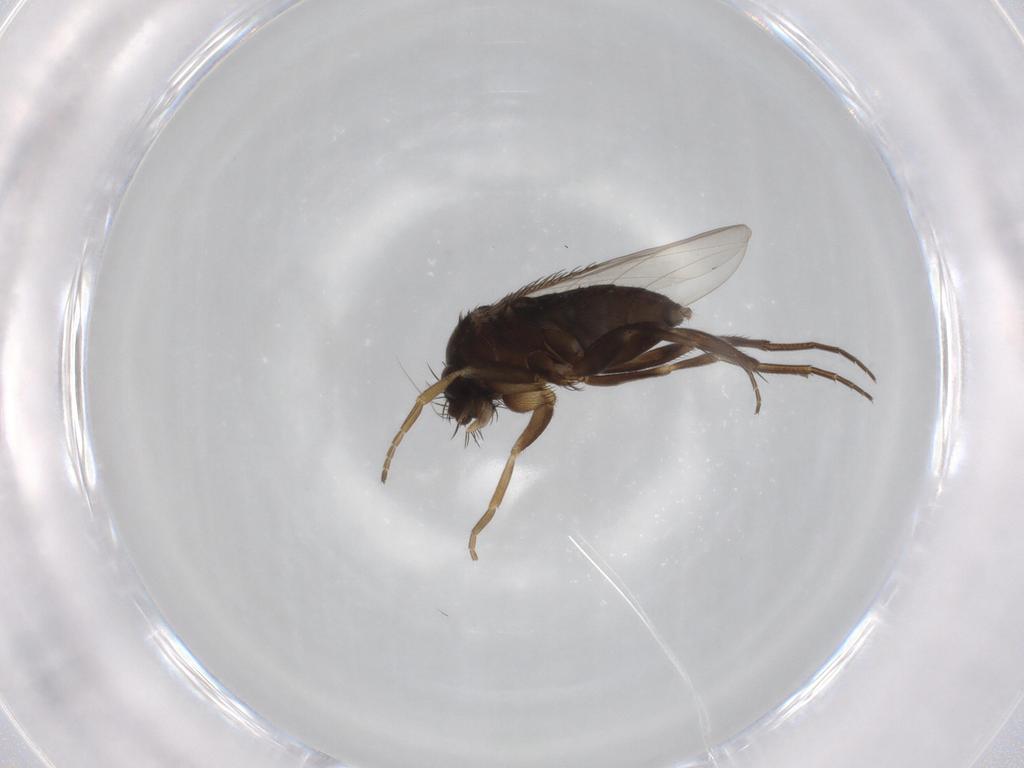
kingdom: Animalia
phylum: Arthropoda
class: Insecta
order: Diptera
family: Phoridae
